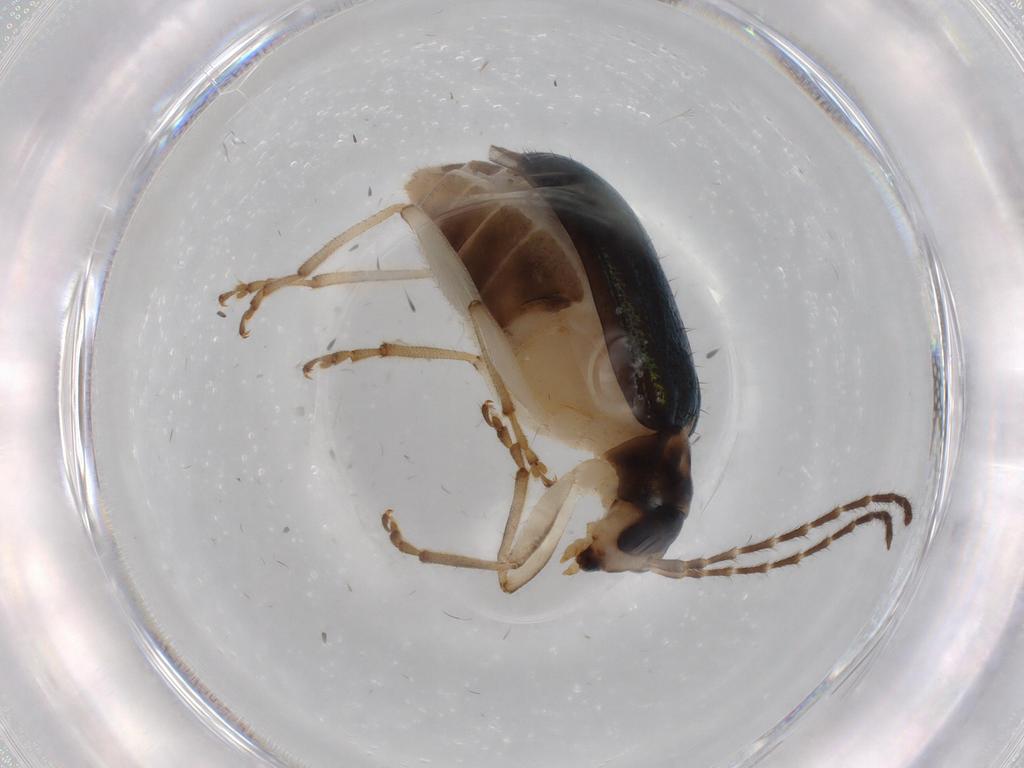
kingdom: Animalia
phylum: Arthropoda
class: Insecta
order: Coleoptera
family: Chrysomelidae
